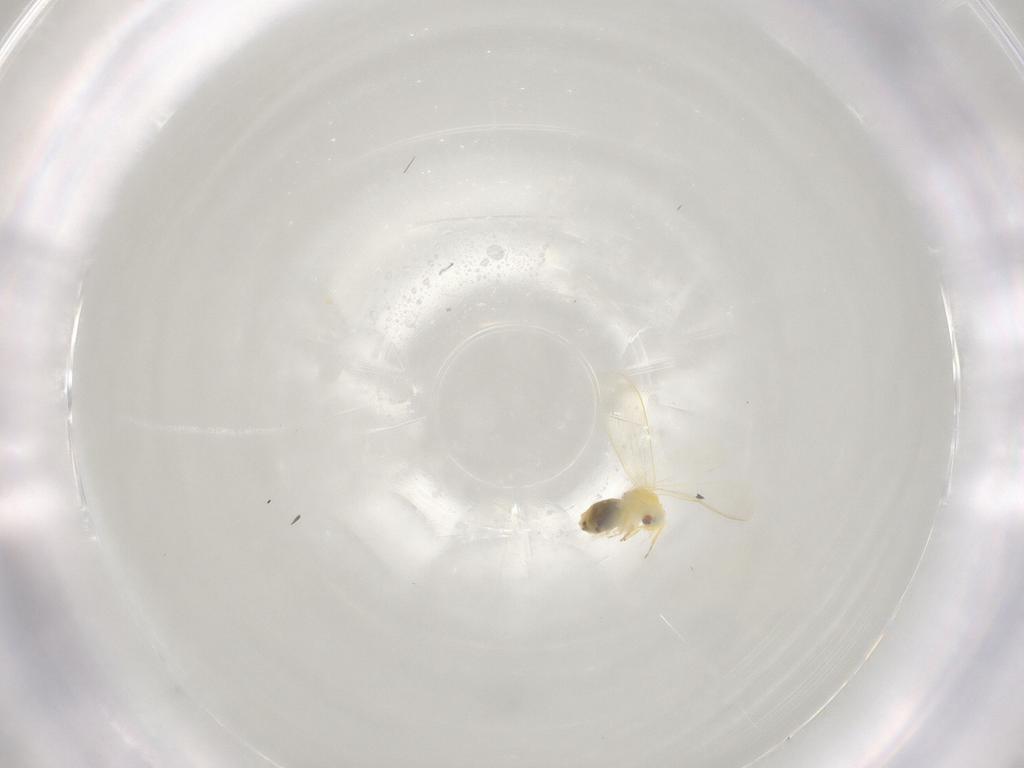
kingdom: Animalia
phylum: Arthropoda
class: Insecta
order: Hemiptera
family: Aleyrodidae
